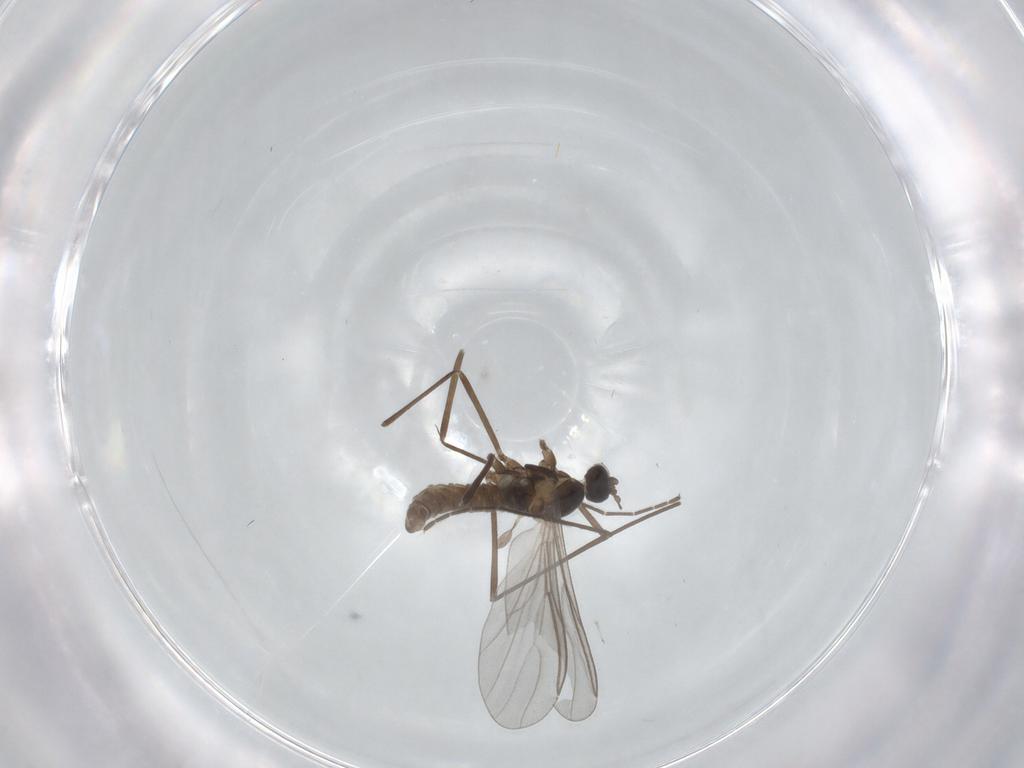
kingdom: Animalia
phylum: Arthropoda
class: Insecta
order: Diptera
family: Cecidomyiidae
